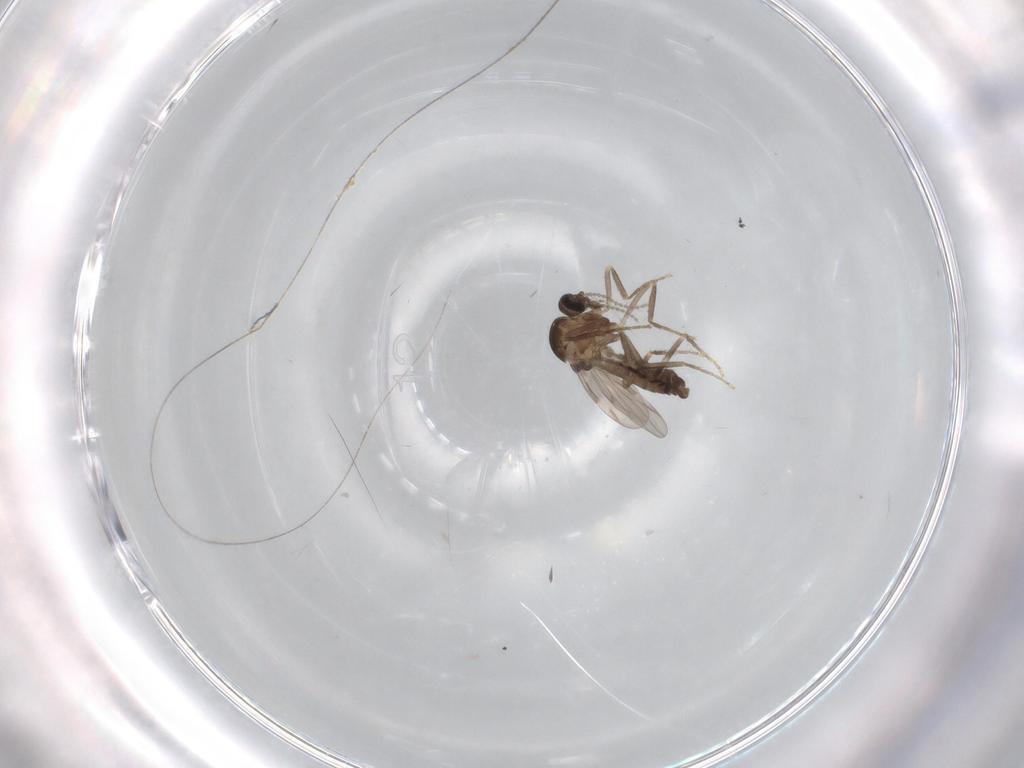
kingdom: Animalia
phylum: Arthropoda
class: Insecta
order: Diptera
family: Ceratopogonidae
